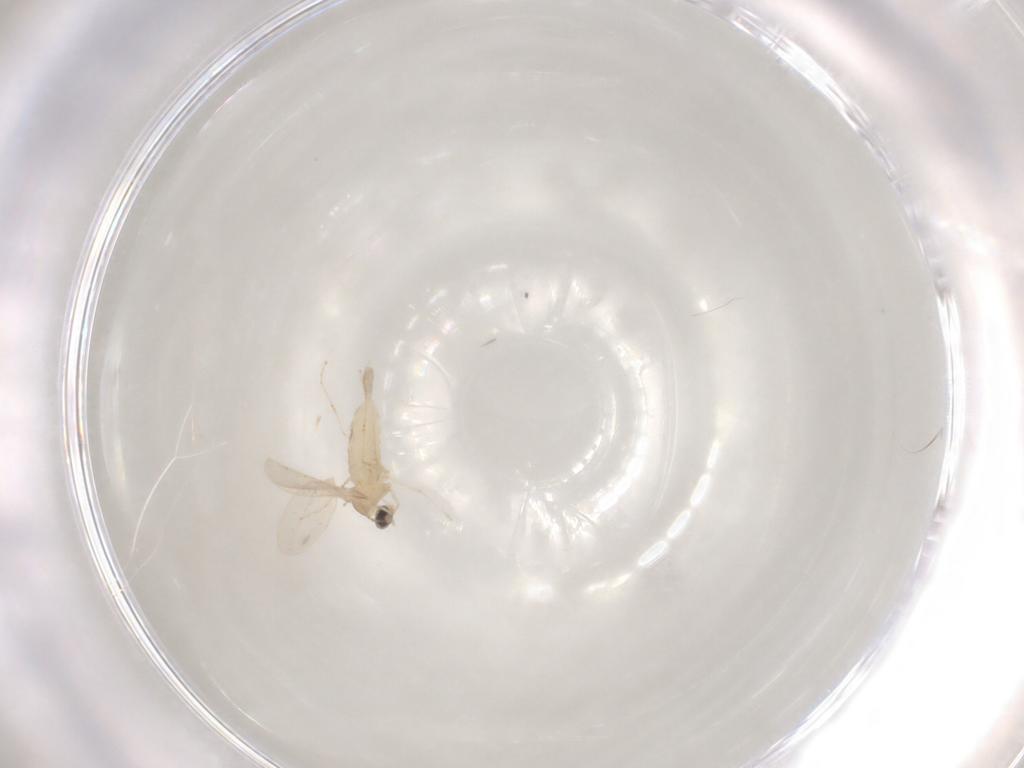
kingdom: Animalia
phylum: Arthropoda
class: Insecta
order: Diptera
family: Cecidomyiidae
